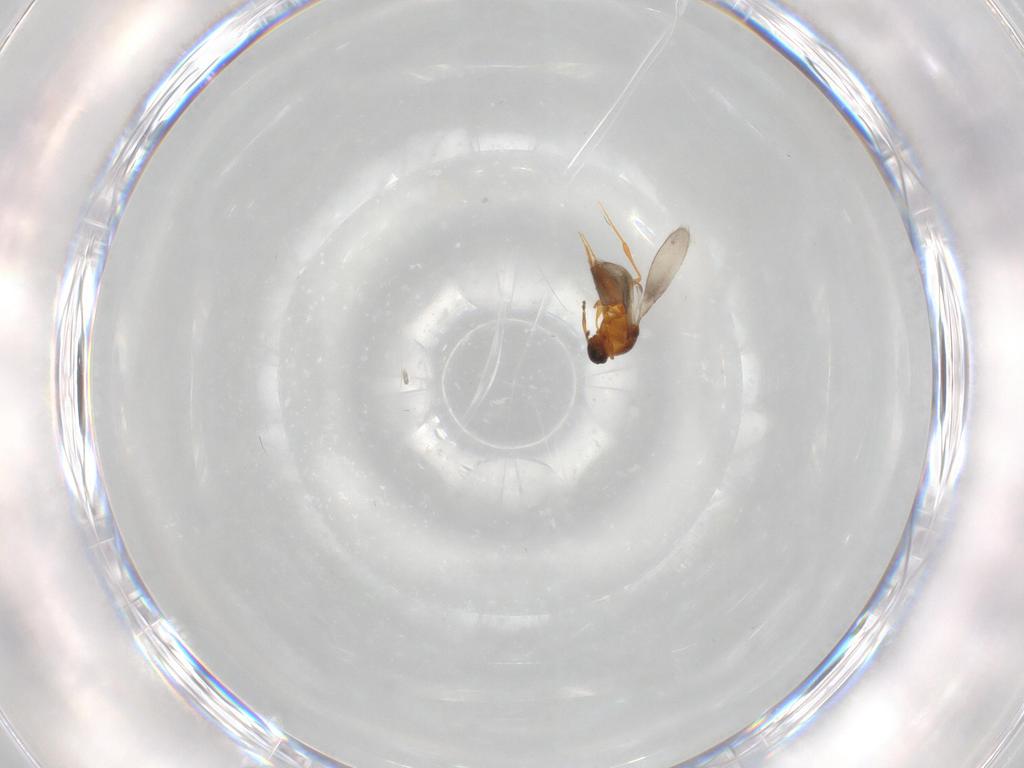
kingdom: Animalia
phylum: Arthropoda
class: Insecta
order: Hymenoptera
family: Platygastridae
